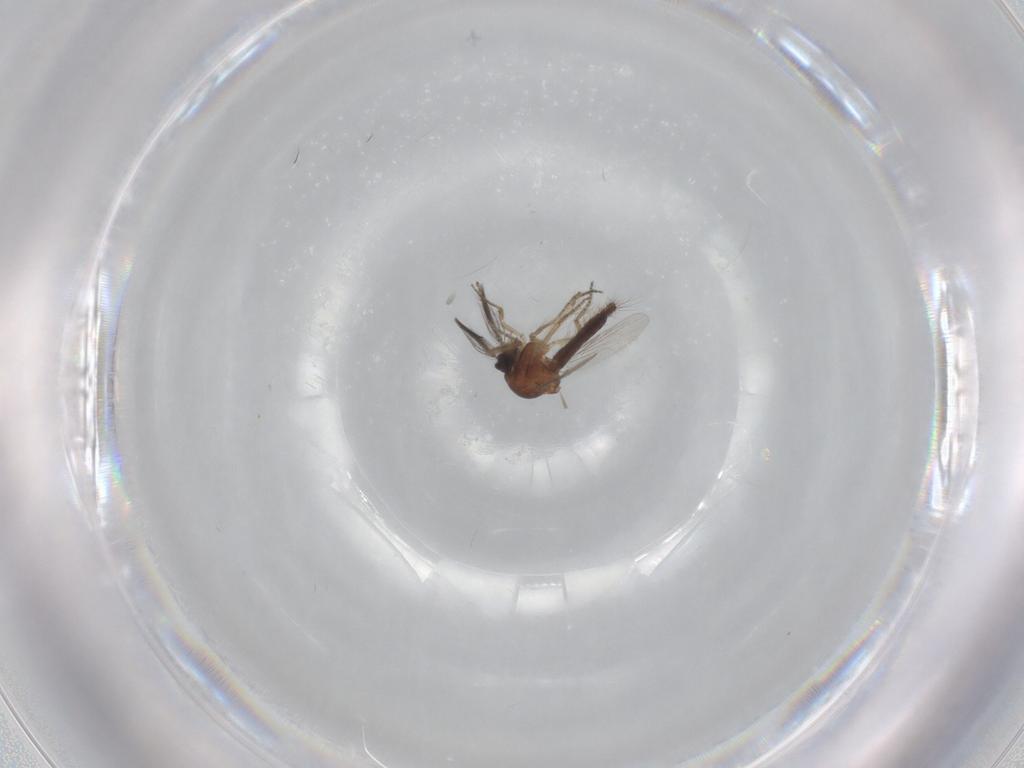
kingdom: Animalia
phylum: Arthropoda
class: Insecta
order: Diptera
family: Ceratopogonidae
